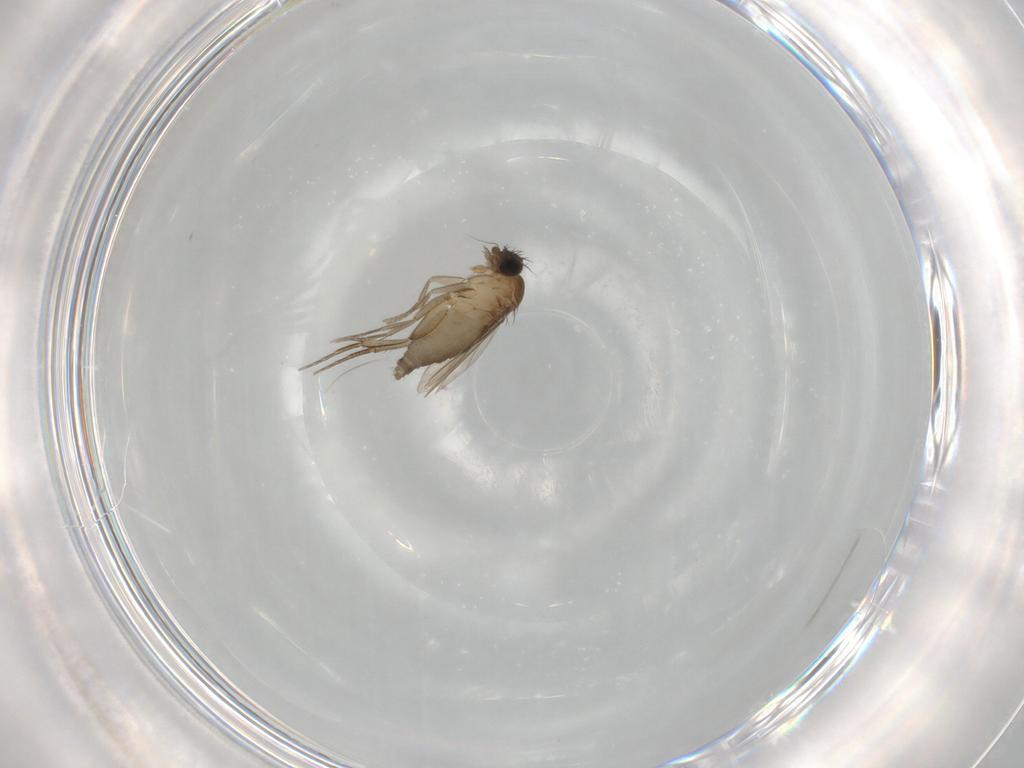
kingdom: Animalia
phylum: Arthropoda
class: Insecta
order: Diptera
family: Phoridae
